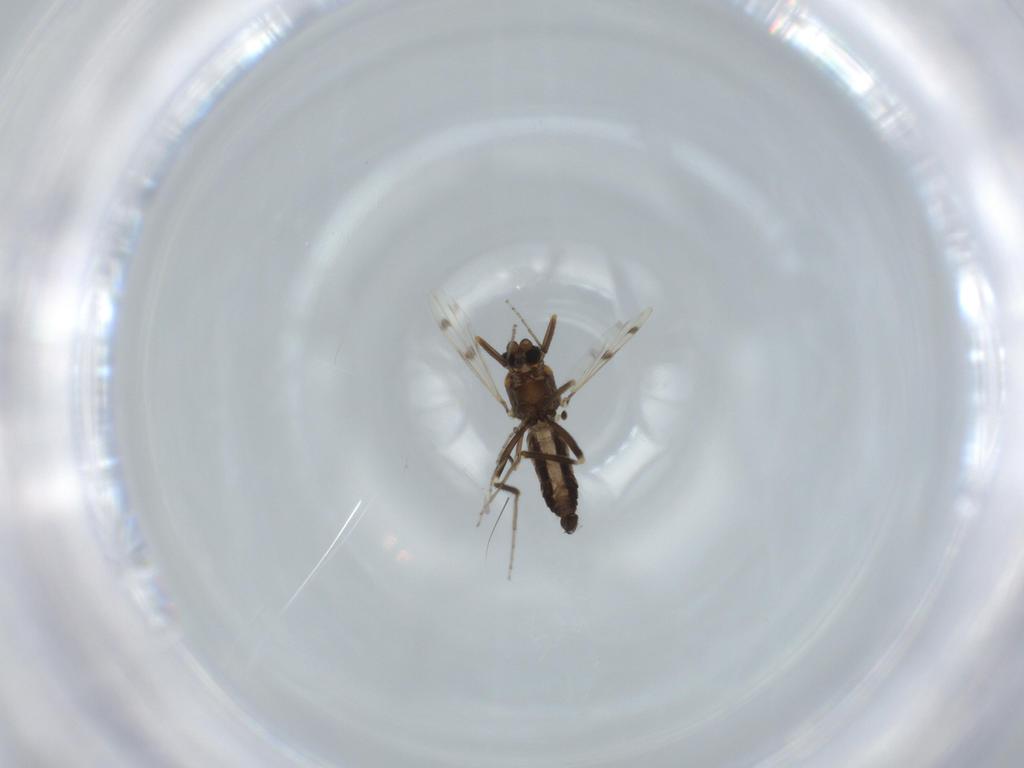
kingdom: Animalia
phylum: Arthropoda
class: Insecta
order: Diptera
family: Ceratopogonidae
